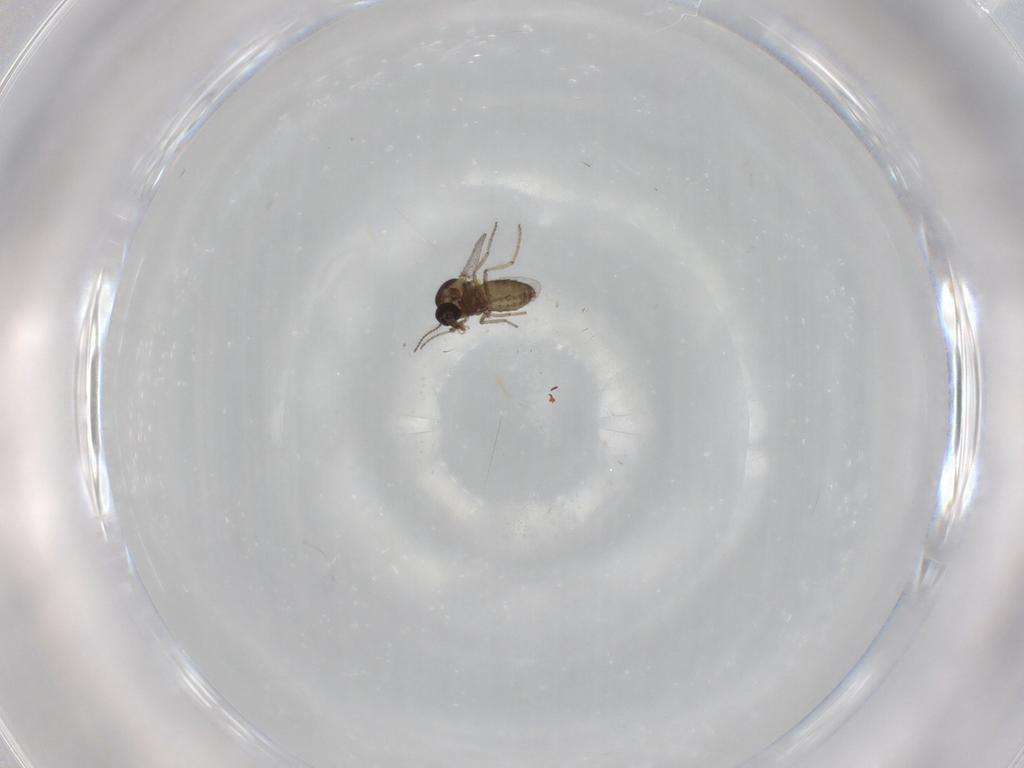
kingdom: Animalia
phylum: Arthropoda
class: Insecta
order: Diptera
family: Ceratopogonidae
